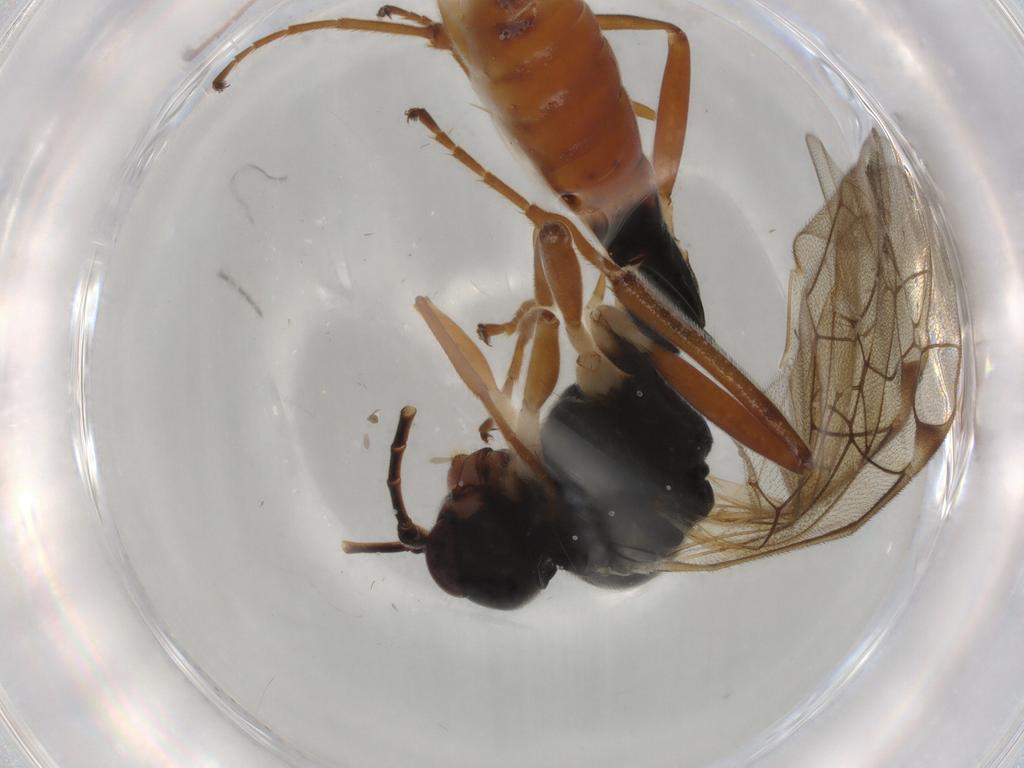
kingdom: Animalia
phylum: Arthropoda
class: Insecta
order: Hymenoptera
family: Ichneumonidae
